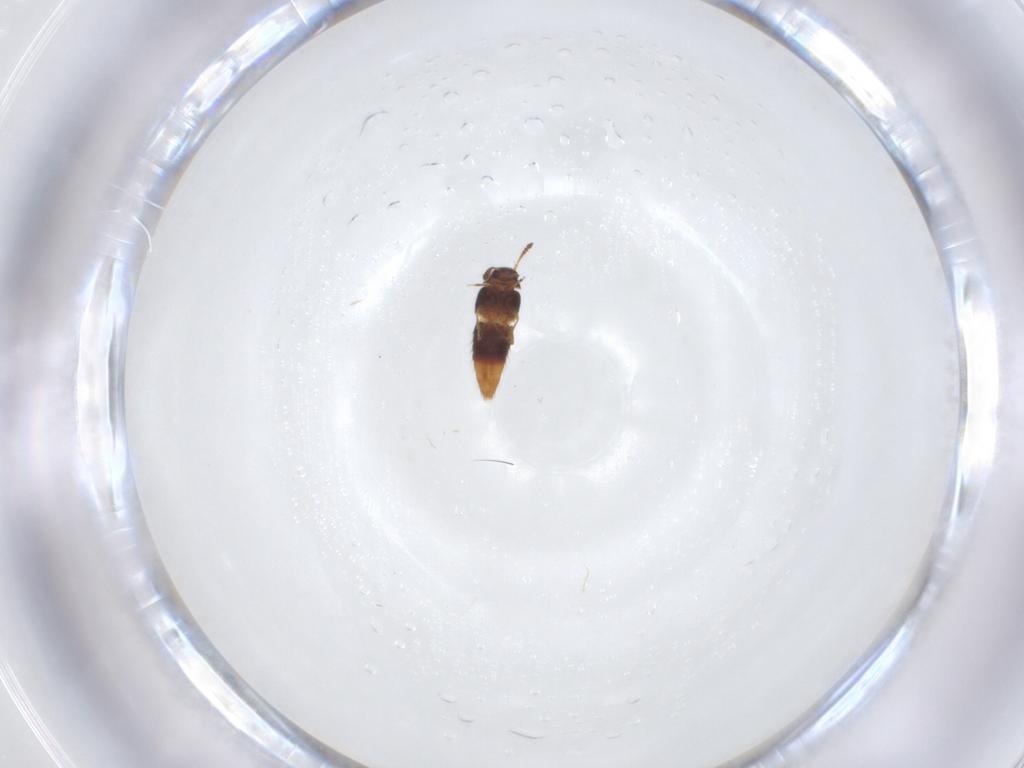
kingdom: Animalia
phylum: Arthropoda
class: Insecta
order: Coleoptera
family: Staphylinidae
